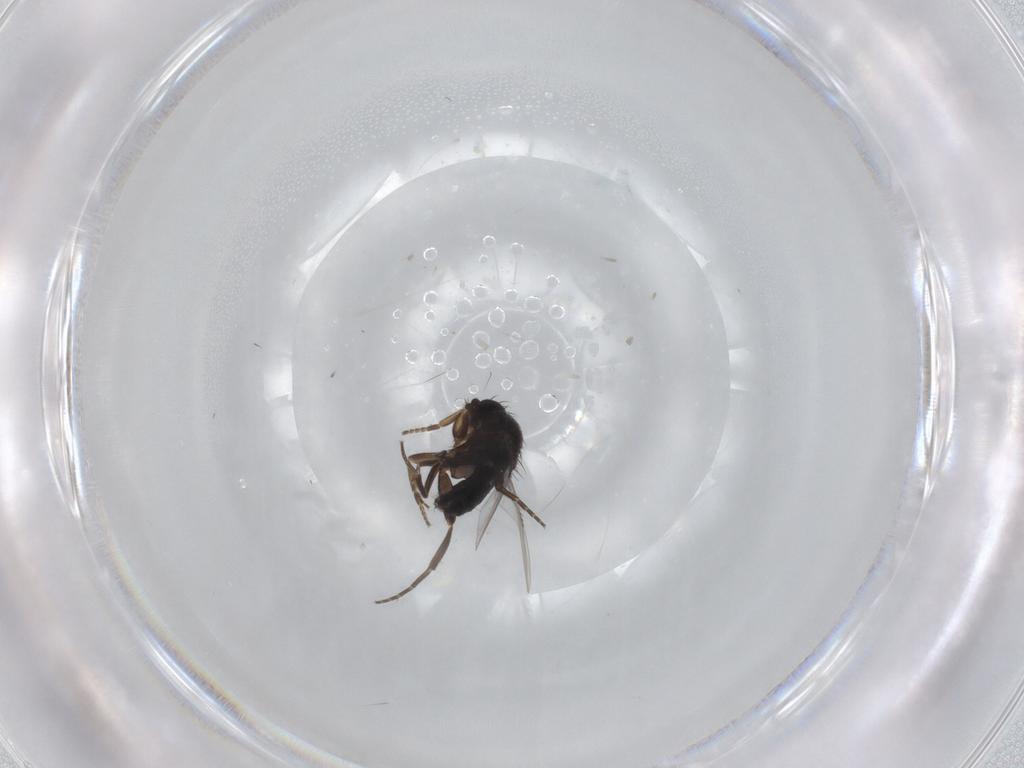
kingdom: Animalia
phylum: Arthropoda
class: Insecta
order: Diptera
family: Phoridae
